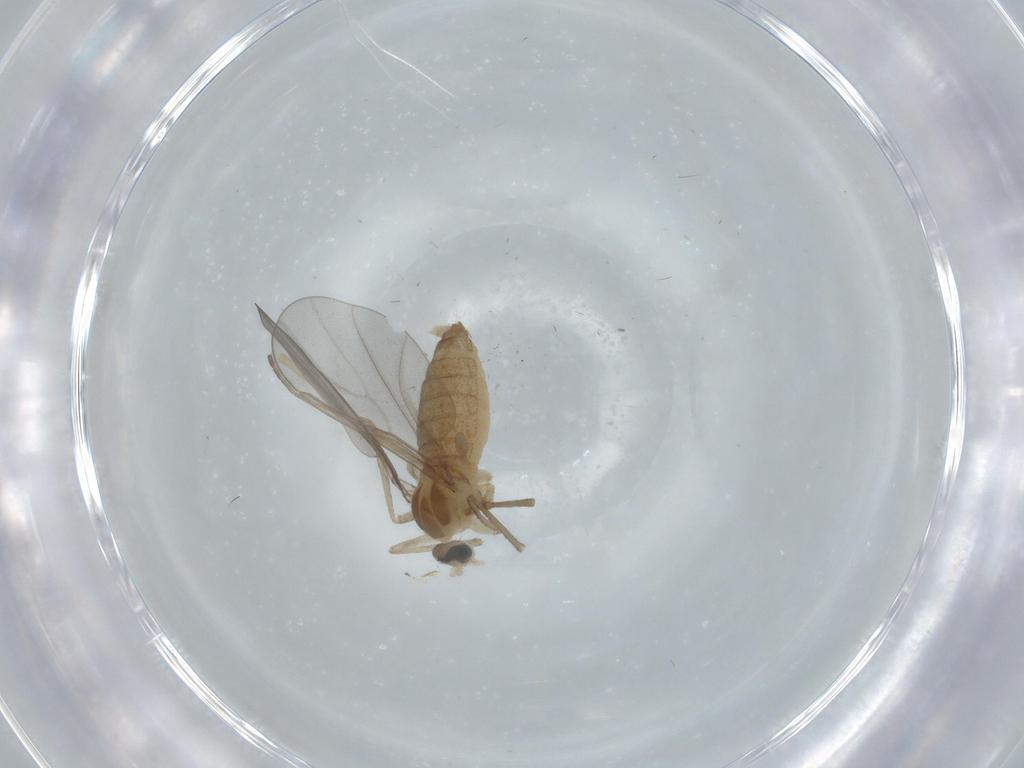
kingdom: Animalia
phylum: Arthropoda
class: Insecta
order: Diptera
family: Cecidomyiidae
